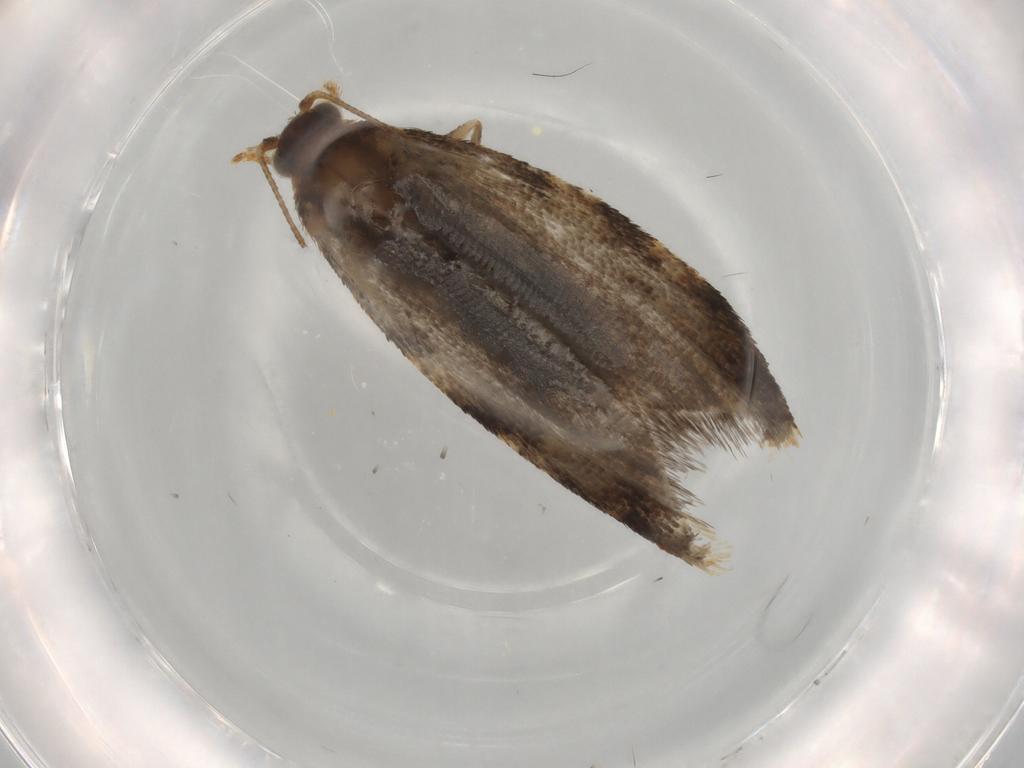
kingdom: Animalia
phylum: Arthropoda
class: Insecta
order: Lepidoptera
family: Tortricidae
